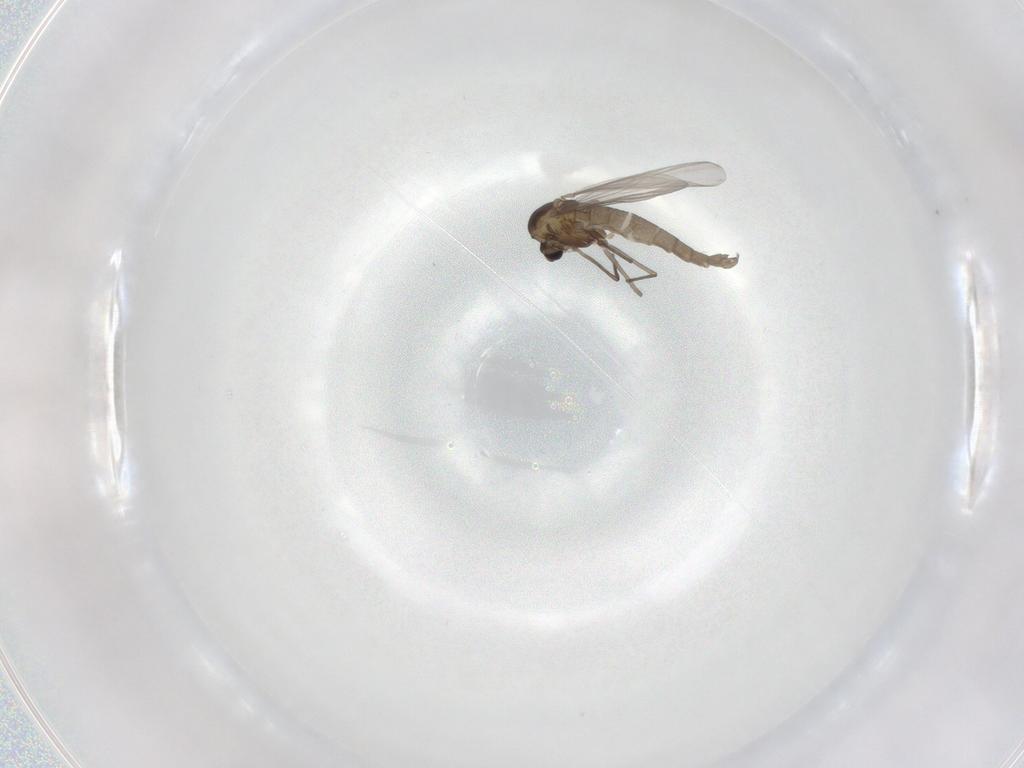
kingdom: Animalia
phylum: Arthropoda
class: Insecta
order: Diptera
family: Chironomidae
